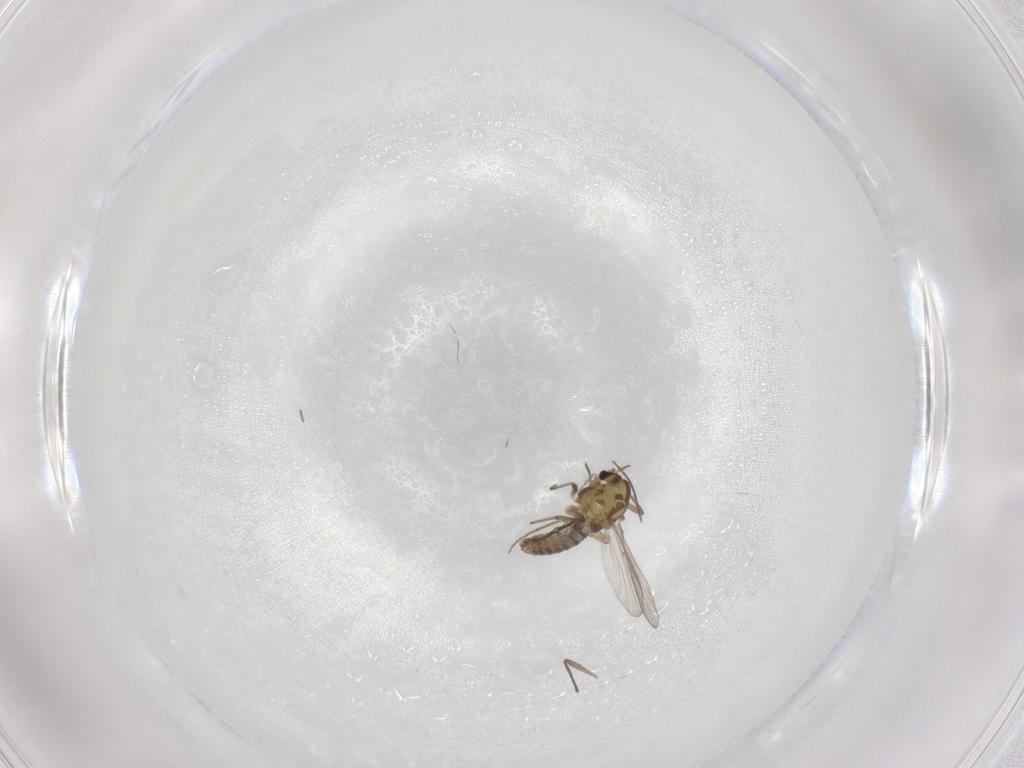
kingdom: Animalia
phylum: Arthropoda
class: Insecta
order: Diptera
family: Chironomidae
